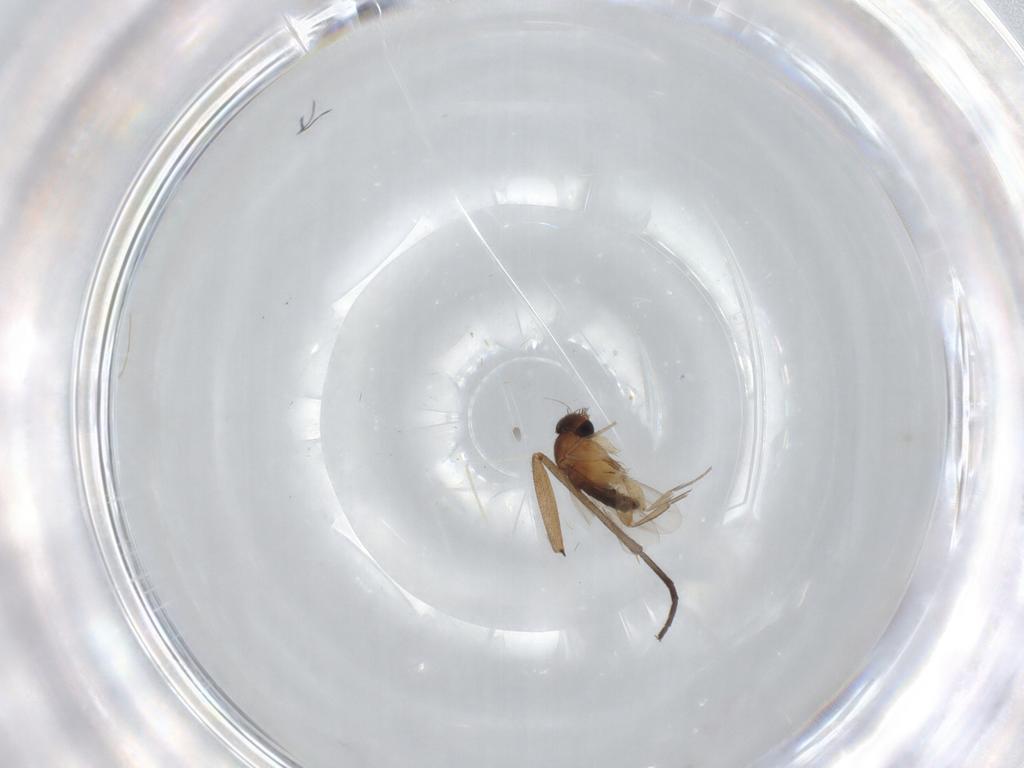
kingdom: Animalia
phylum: Arthropoda
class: Insecta
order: Diptera
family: Phoridae
